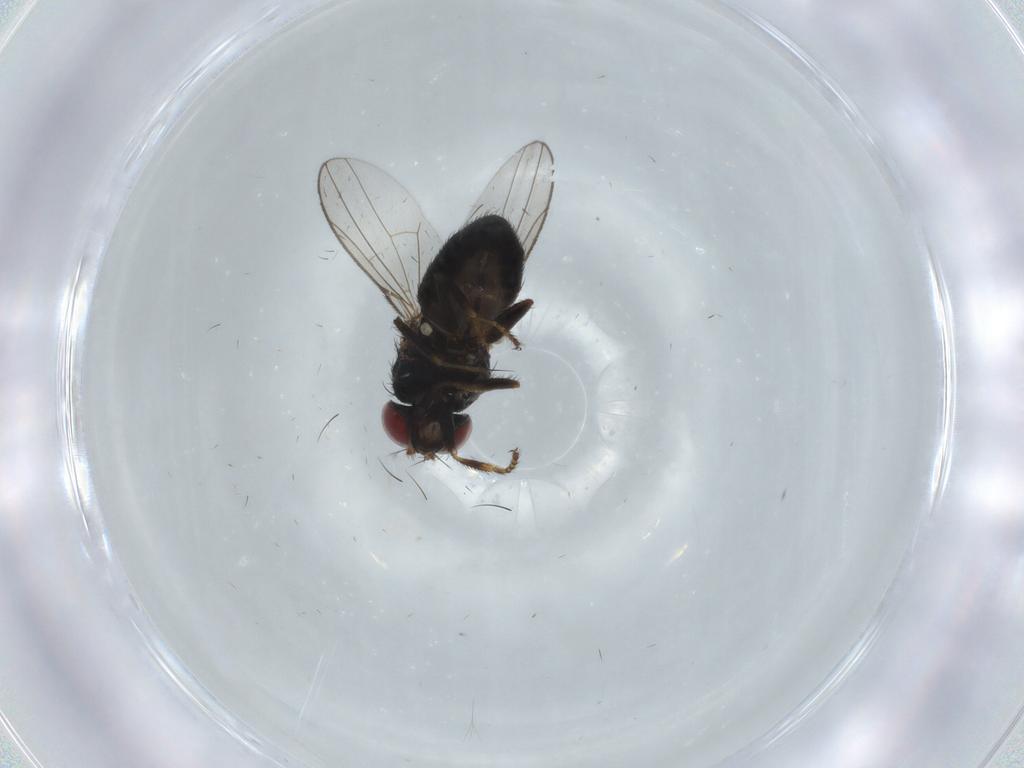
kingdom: Animalia
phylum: Arthropoda
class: Insecta
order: Diptera
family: Ephydridae
